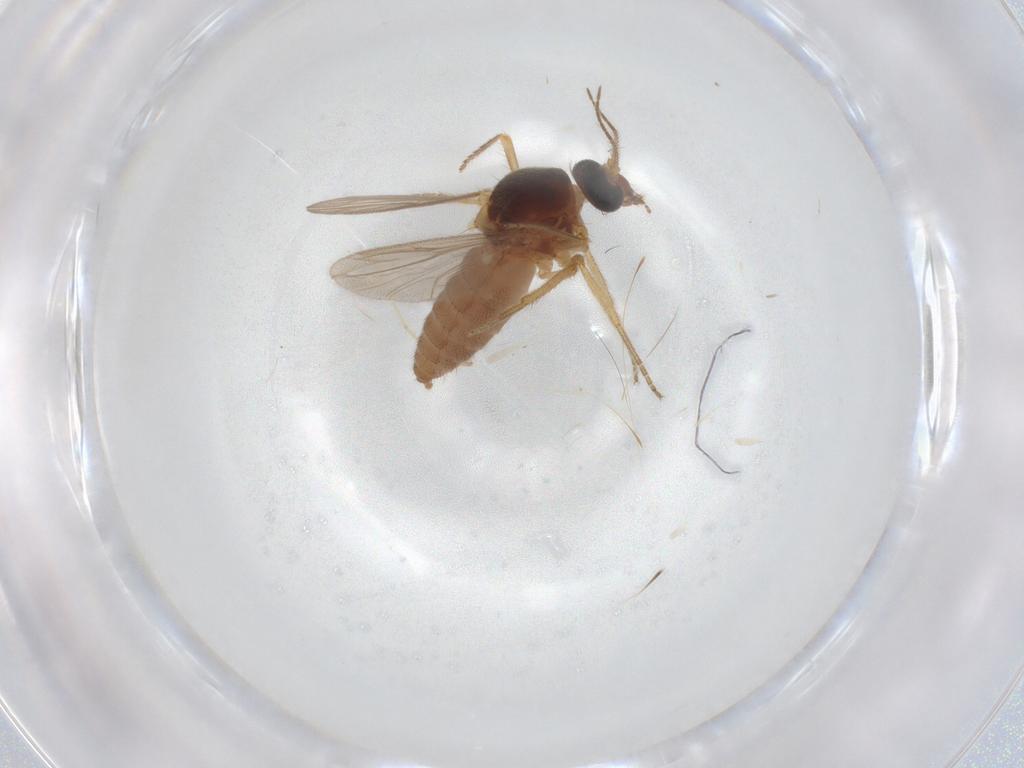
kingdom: Animalia
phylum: Arthropoda
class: Insecta
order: Diptera
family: Ceratopogonidae
